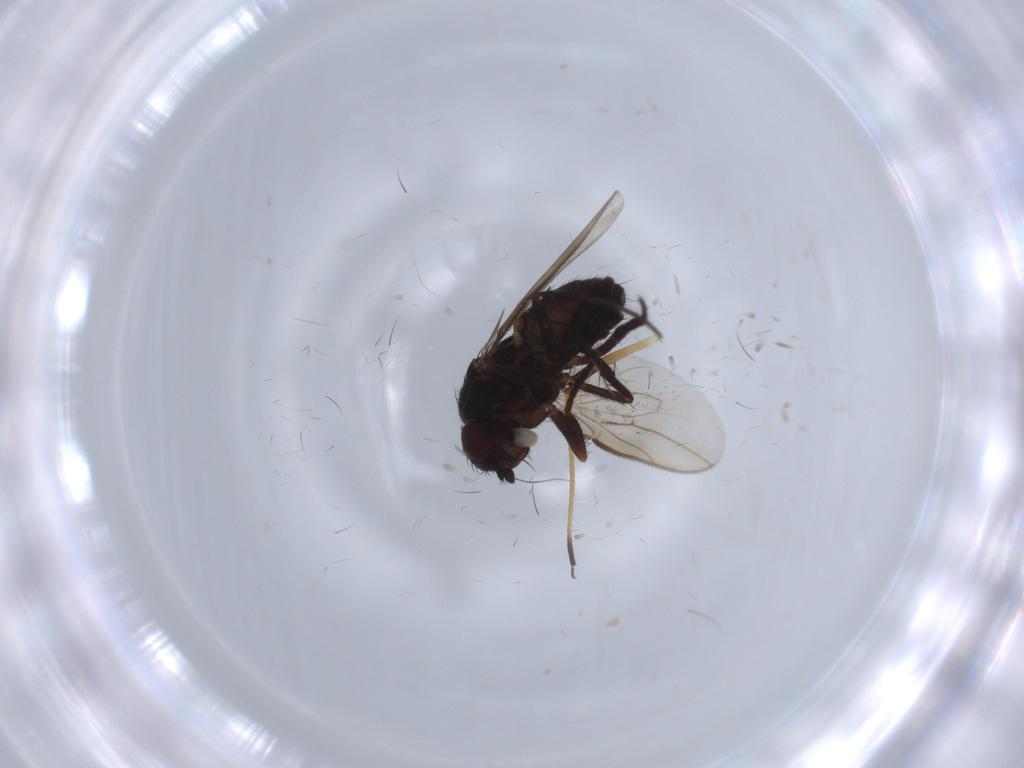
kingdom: Animalia
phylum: Arthropoda
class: Insecta
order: Diptera
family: Sphaeroceridae
